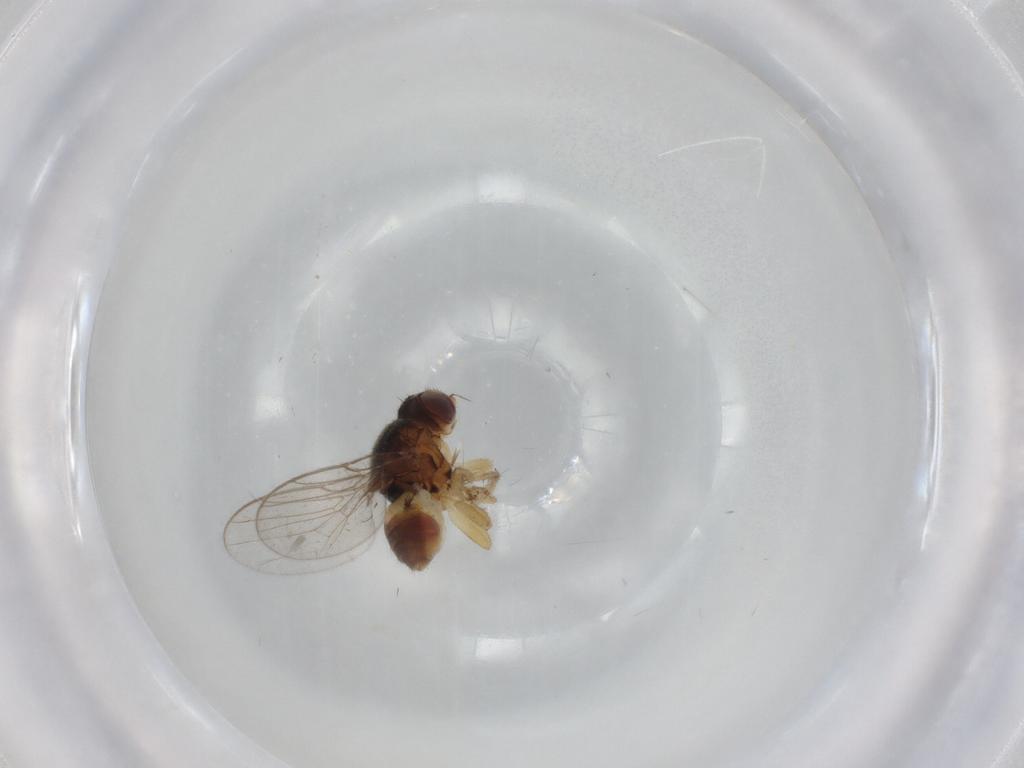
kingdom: Animalia
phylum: Arthropoda
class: Insecta
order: Diptera
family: Chloropidae
